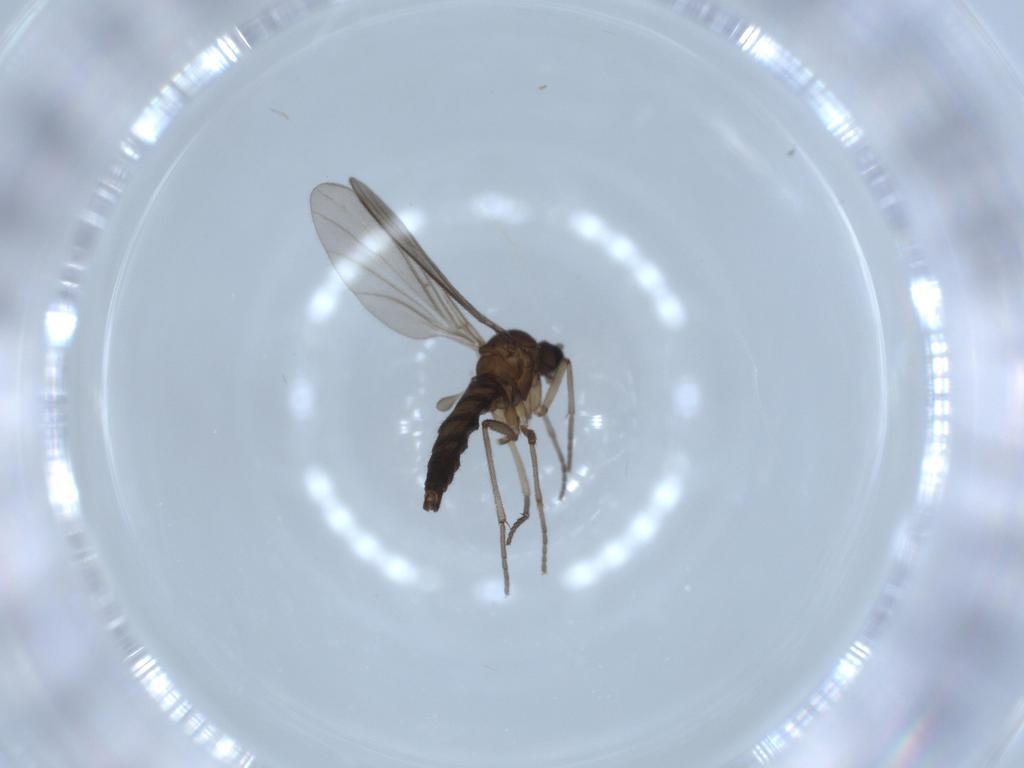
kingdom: Animalia
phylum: Arthropoda
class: Insecta
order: Diptera
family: Sciaridae
